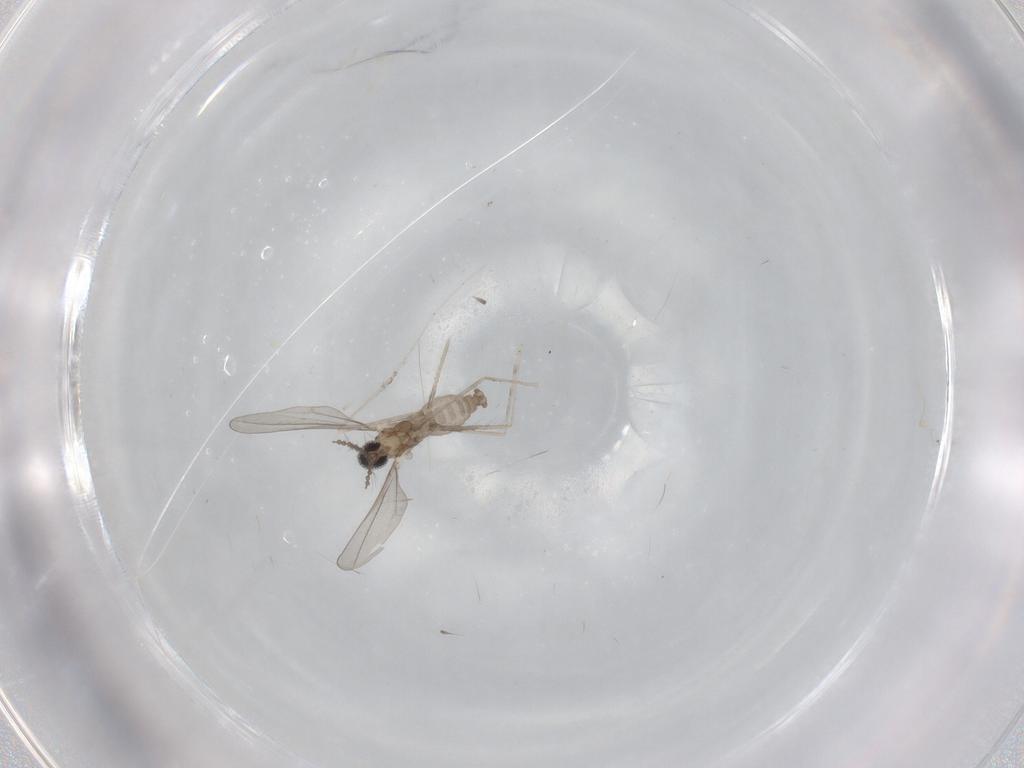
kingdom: Animalia
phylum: Arthropoda
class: Insecta
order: Diptera
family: Cecidomyiidae
